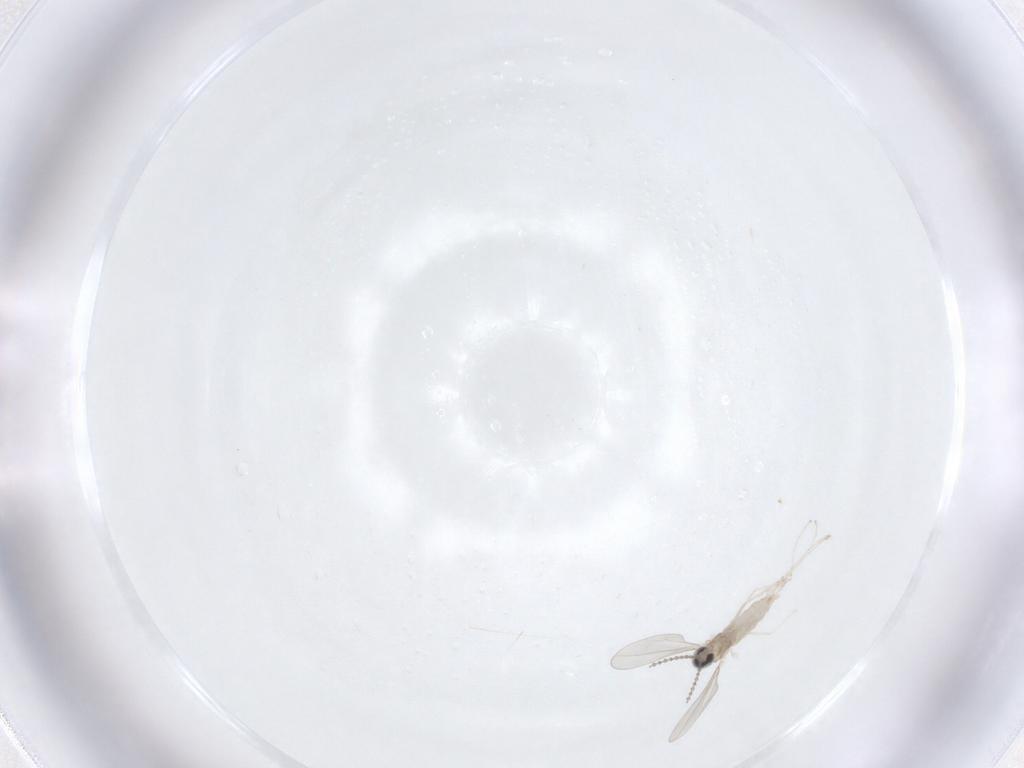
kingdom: Animalia
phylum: Arthropoda
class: Insecta
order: Diptera
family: Cecidomyiidae
